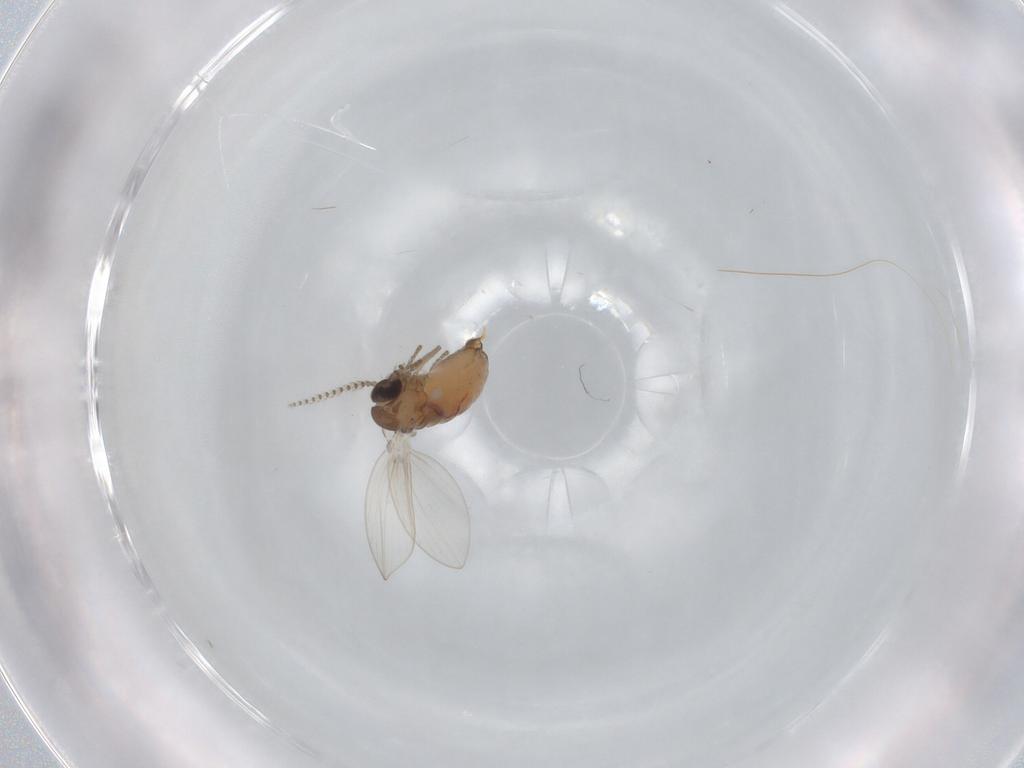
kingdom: Animalia
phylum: Arthropoda
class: Insecta
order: Diptera
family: Psychodidae
